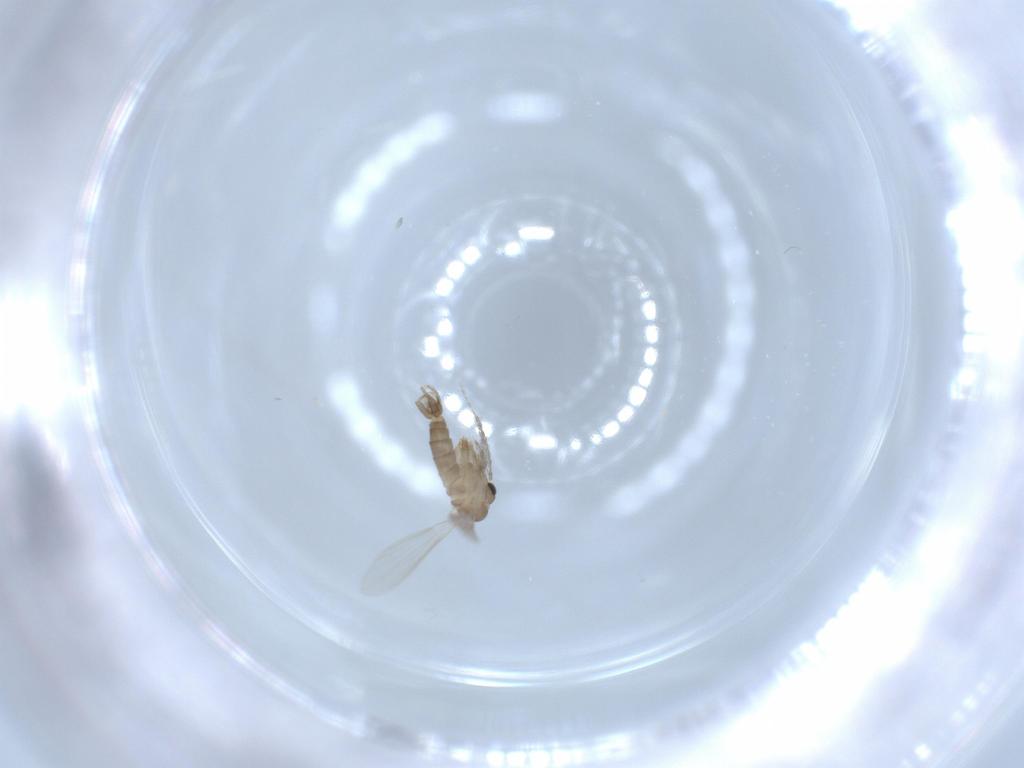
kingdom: Animalia
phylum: Arthropoda
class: Insecta
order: Diptera
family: Psychodidae
